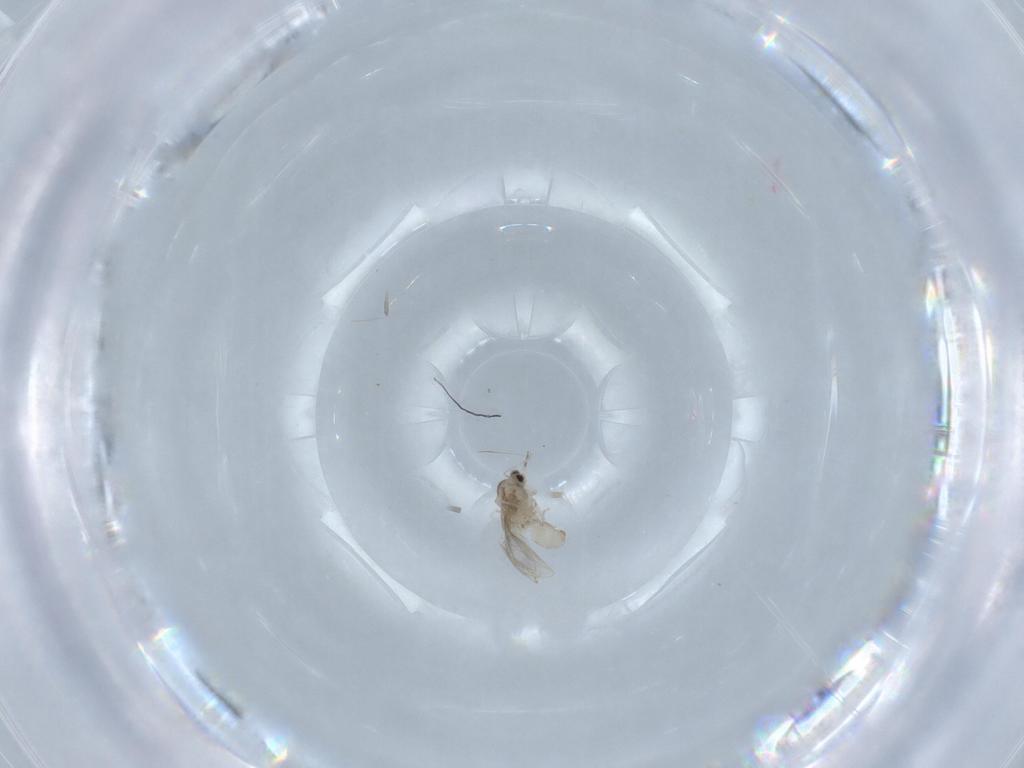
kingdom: Animalia
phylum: Arthropoda
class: Insecta
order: Diptera
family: Cecidomyiidae
